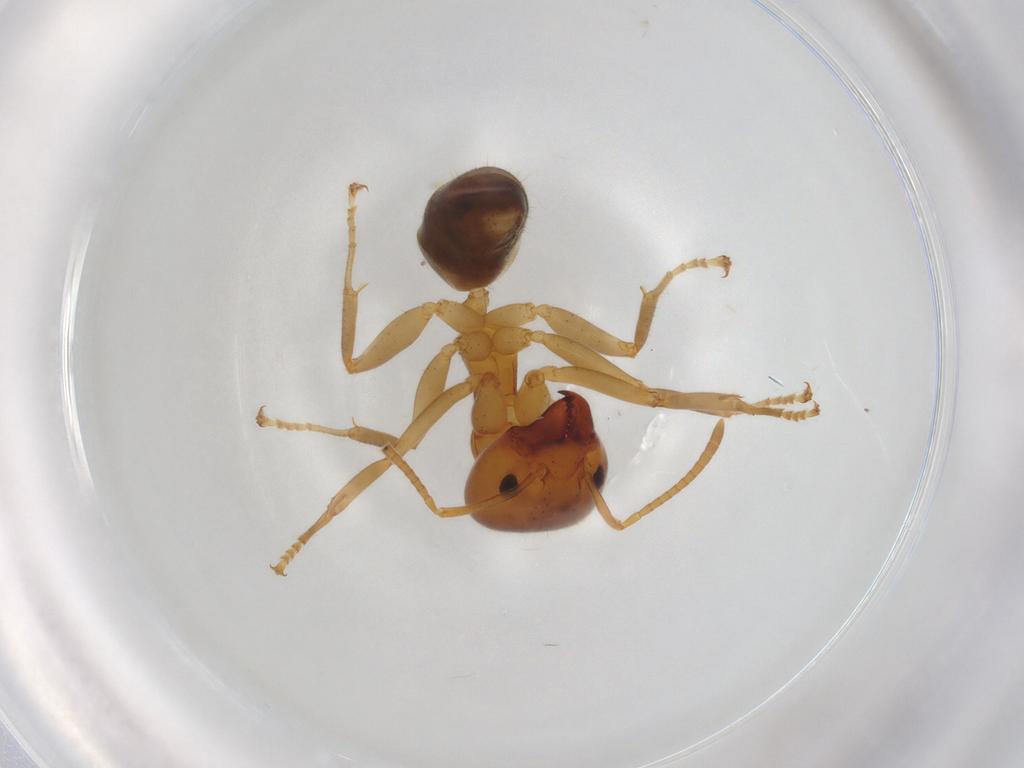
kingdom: Animalia
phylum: Arthropoda
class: Insecta
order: Hymenoptera
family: Formicidae
